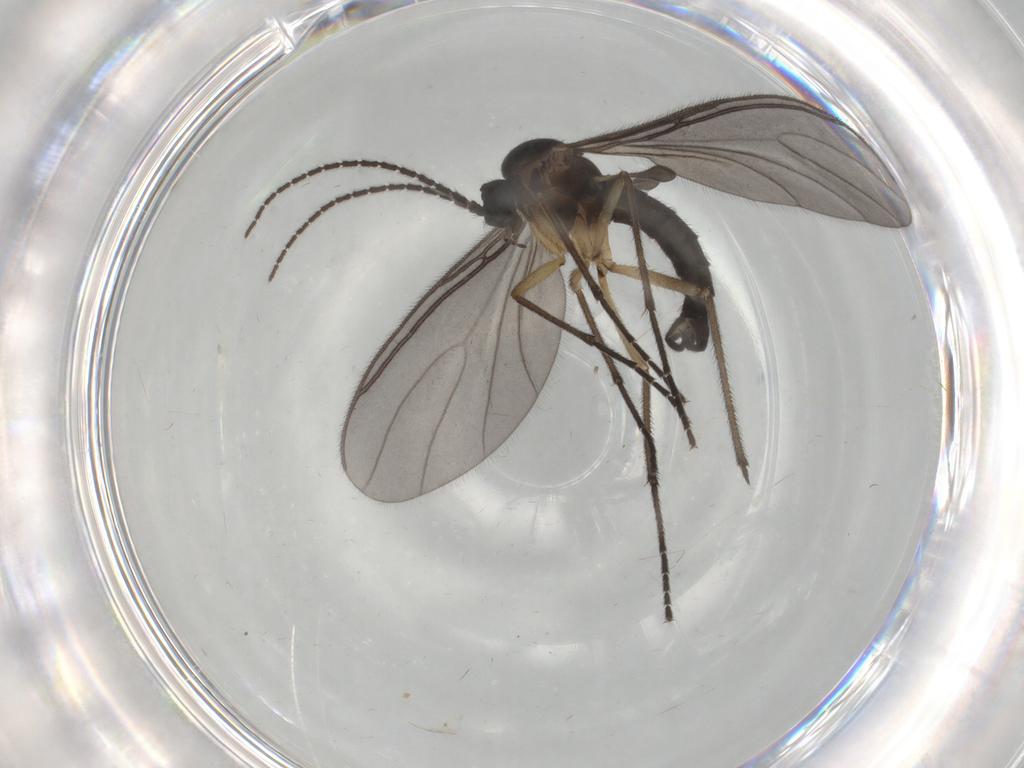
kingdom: Animalia
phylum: Arthropoda
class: Insecta
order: Diptera
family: Sciaridae
